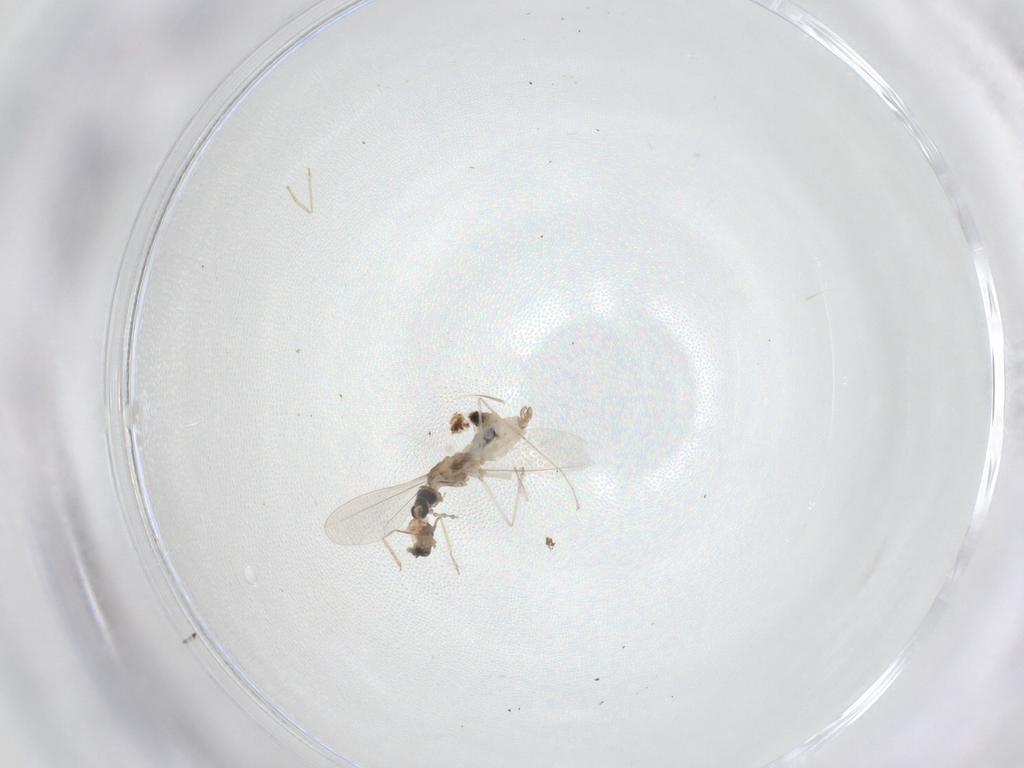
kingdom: Animalia
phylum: Arthropoda
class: Insecta
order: Diptera
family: Cecidomyiidae
